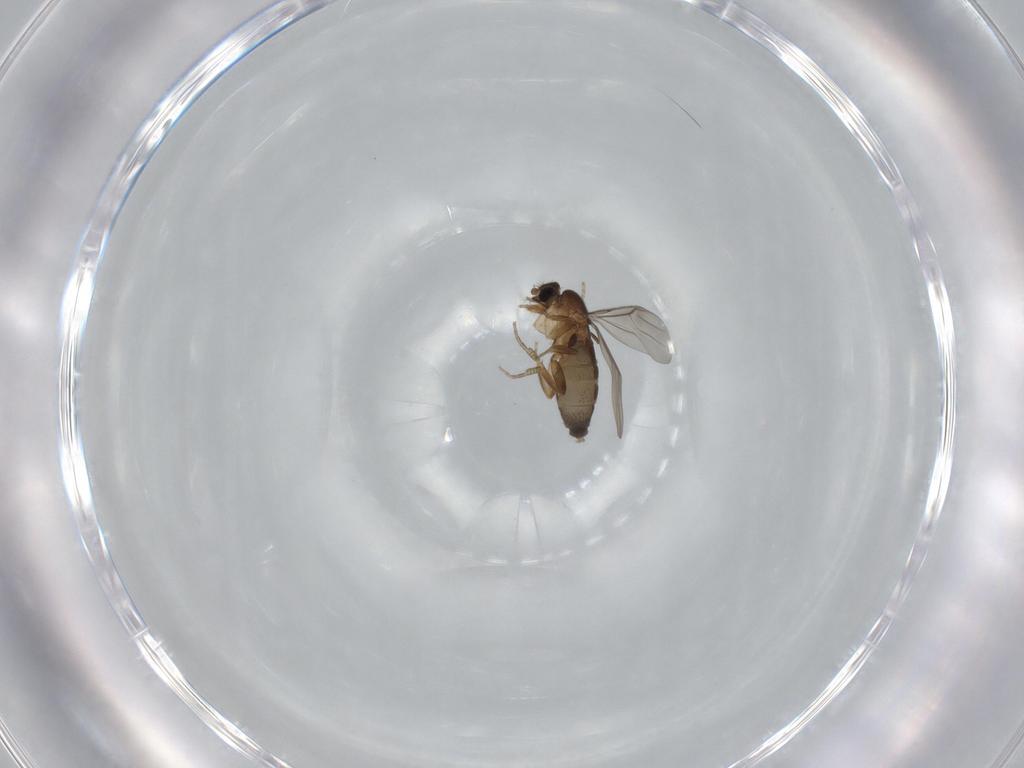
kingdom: Animalia
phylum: Arthropoda
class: Insecta
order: Diptera
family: Phoridae
